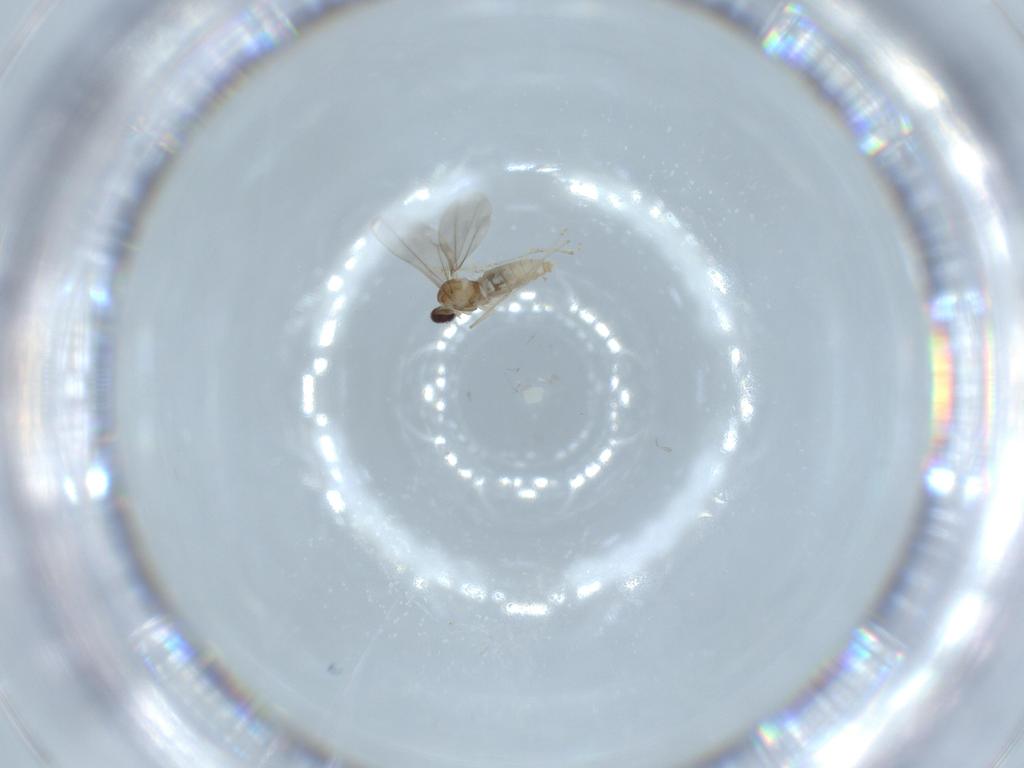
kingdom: Animalia
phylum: Arthropoda
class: Insecta
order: Diptera
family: Cecidomyiidae
